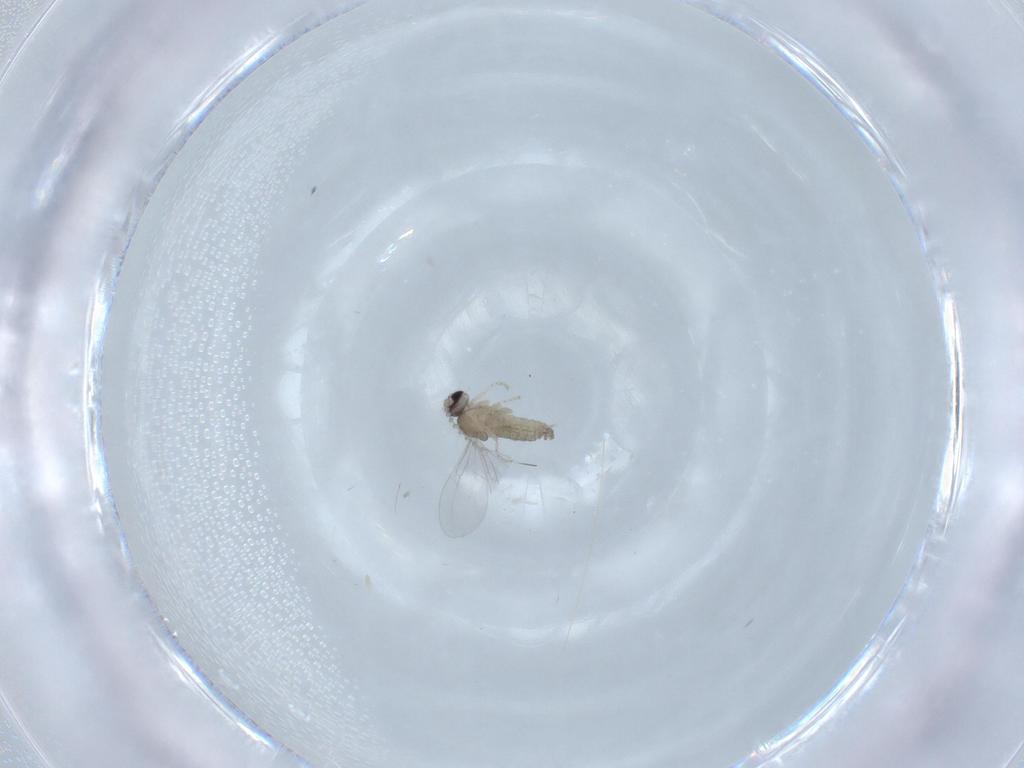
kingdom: Animalia
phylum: Arthropoda
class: Insecta
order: Diptera
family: Cecidomyiidae
